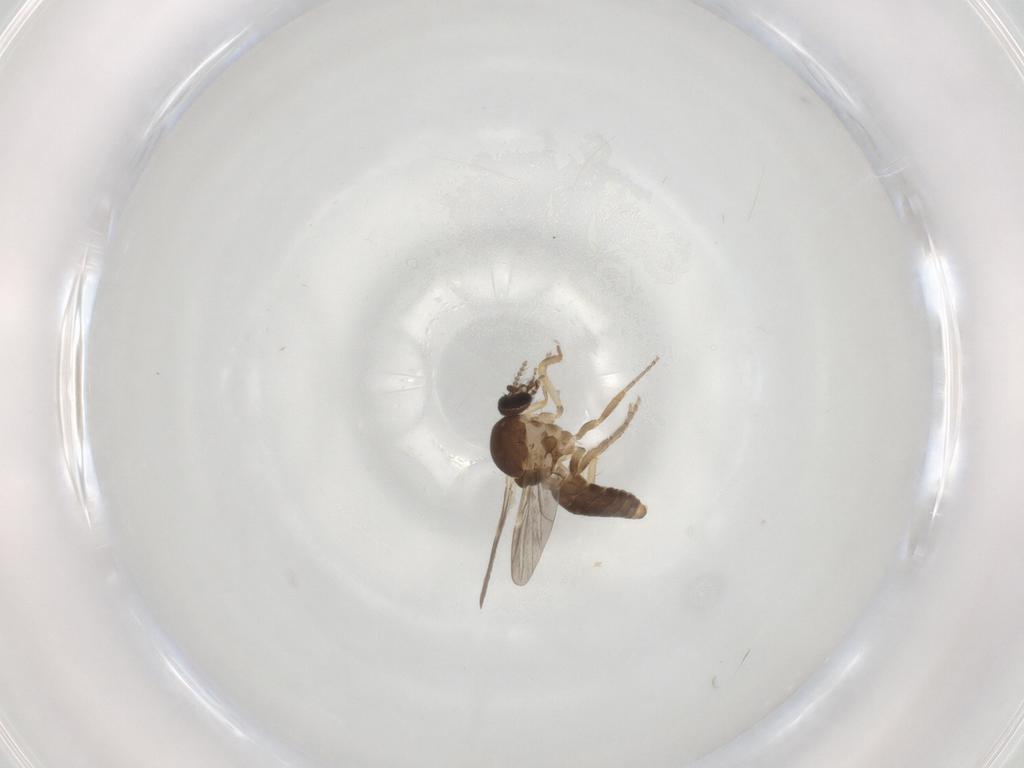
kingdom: Animalia
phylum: Arthropoda
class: Insecta
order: Diptera
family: Ceratopogonidae
